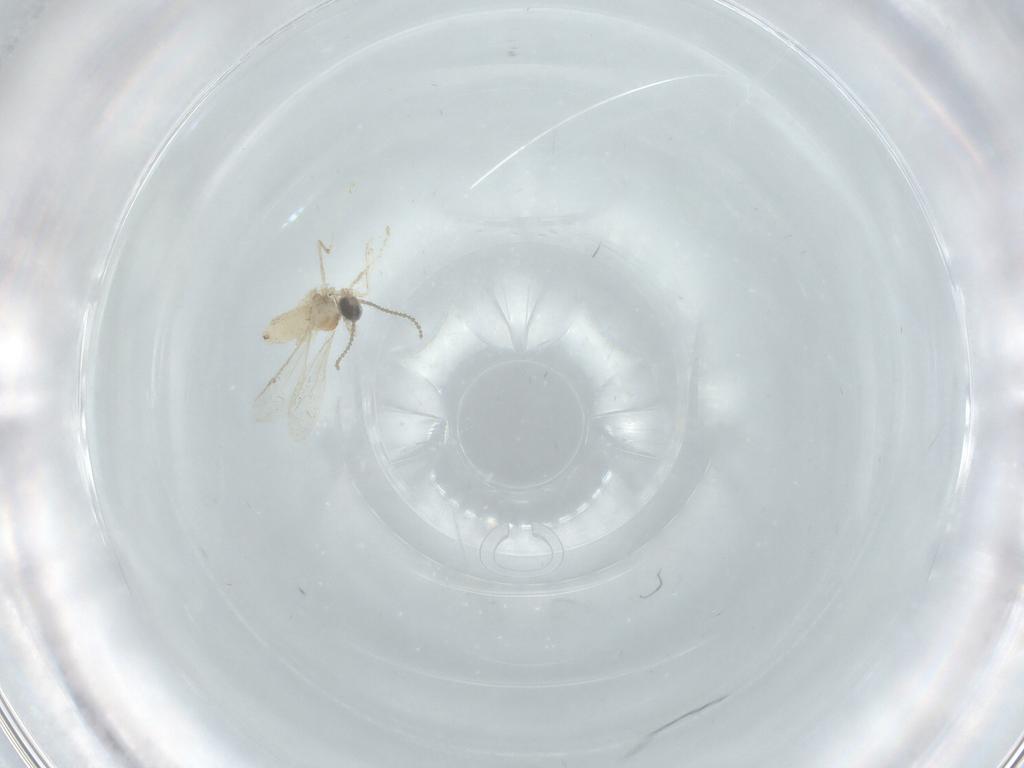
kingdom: Animalia
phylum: Arthropoda
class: Insecta
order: Diptera
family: Cecidomyiidae
